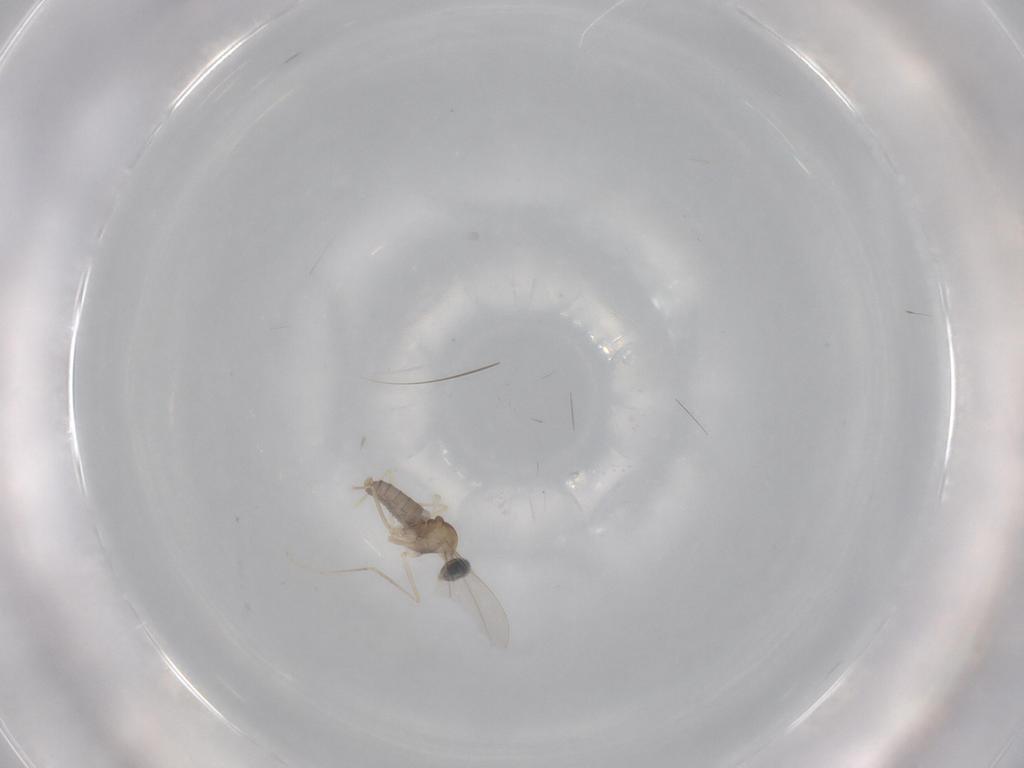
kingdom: Animalia
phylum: Arthropoda
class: Insecta
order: Diptera
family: Cecidomyiidae
